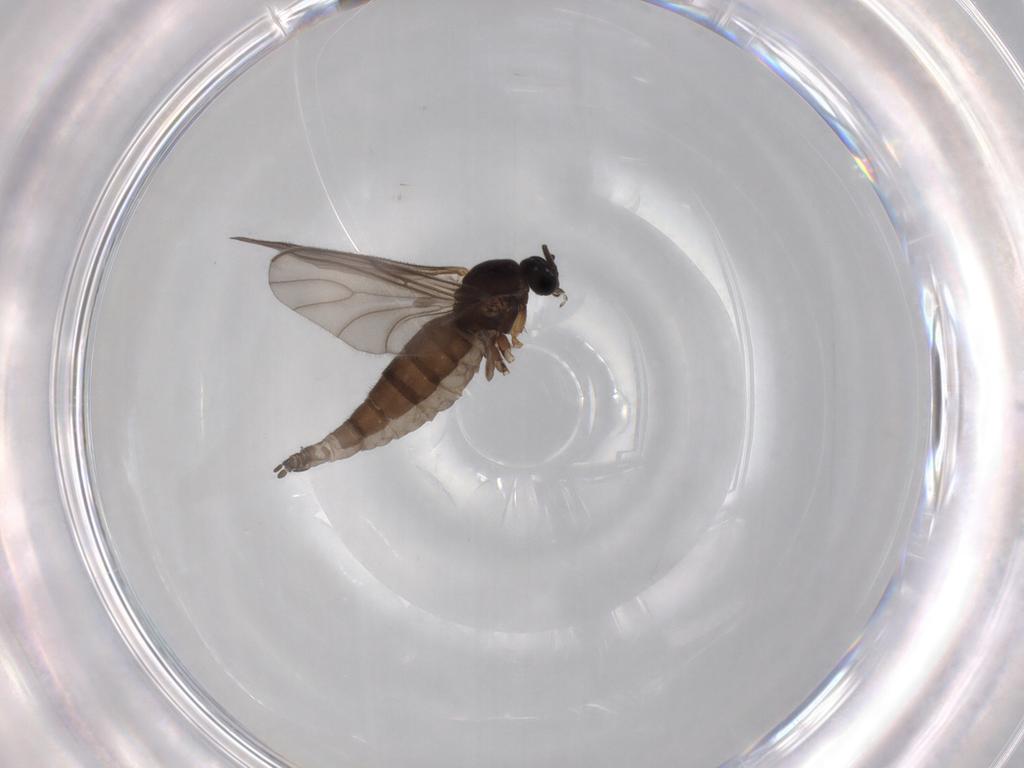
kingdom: Animalia
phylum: Arthropoda
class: Insecta
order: Diptera
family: Sciaridae
